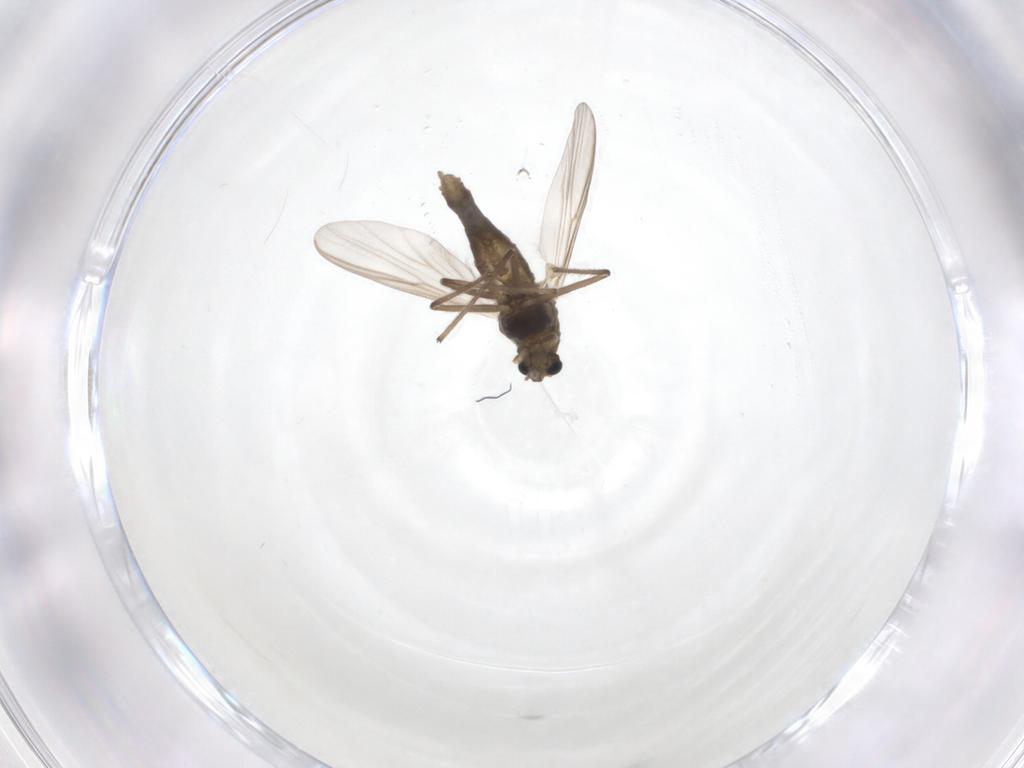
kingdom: Animalia
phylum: Arthropoda
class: Insecta
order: Diptera
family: Chironomidae
